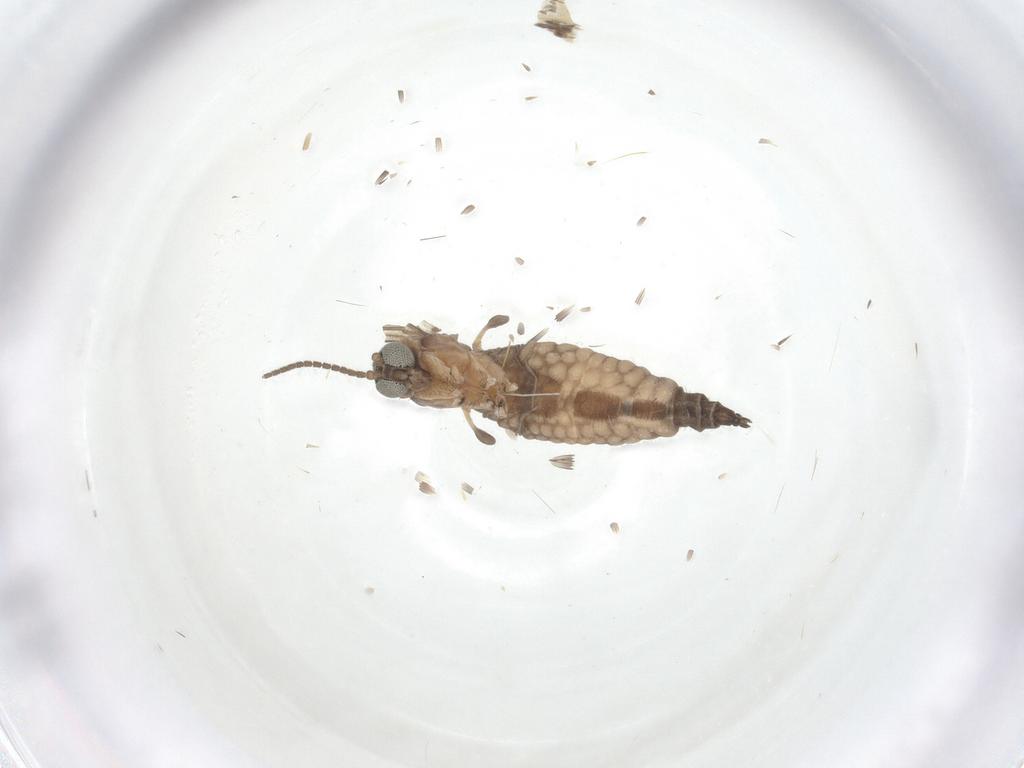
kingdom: Animalia
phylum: Arthropoda
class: Insecta
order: Diptera
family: Sciaridae
